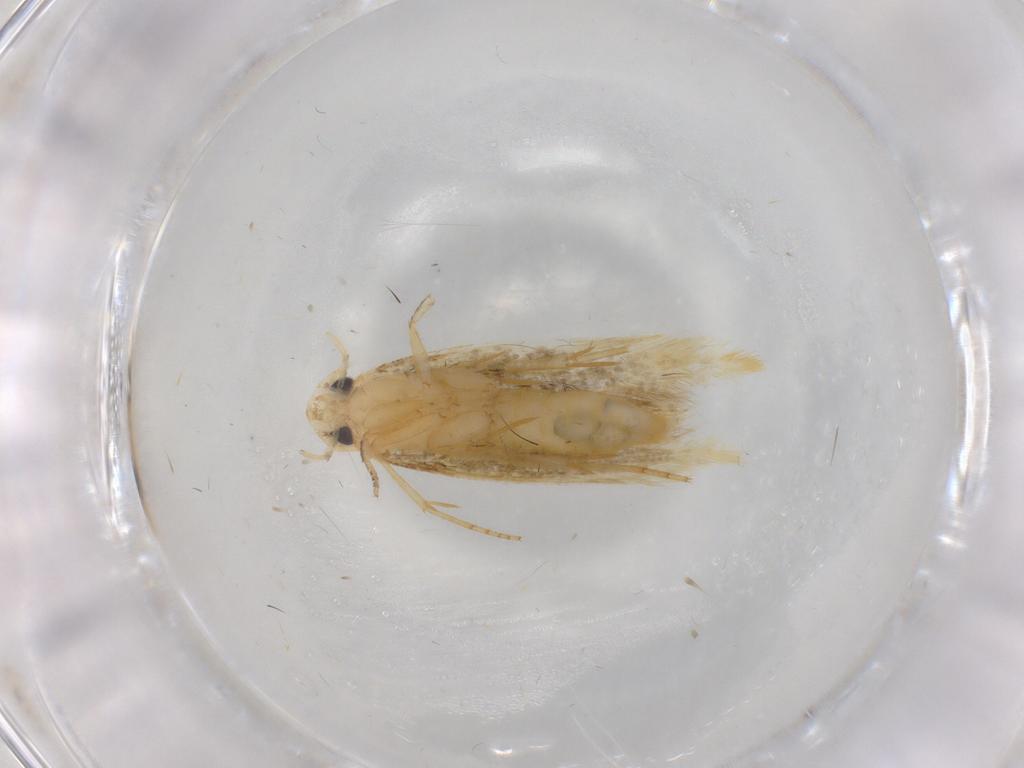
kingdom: Animalia
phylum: Arthropoda
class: Insecta
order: Lepidoptera
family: Tineidae
